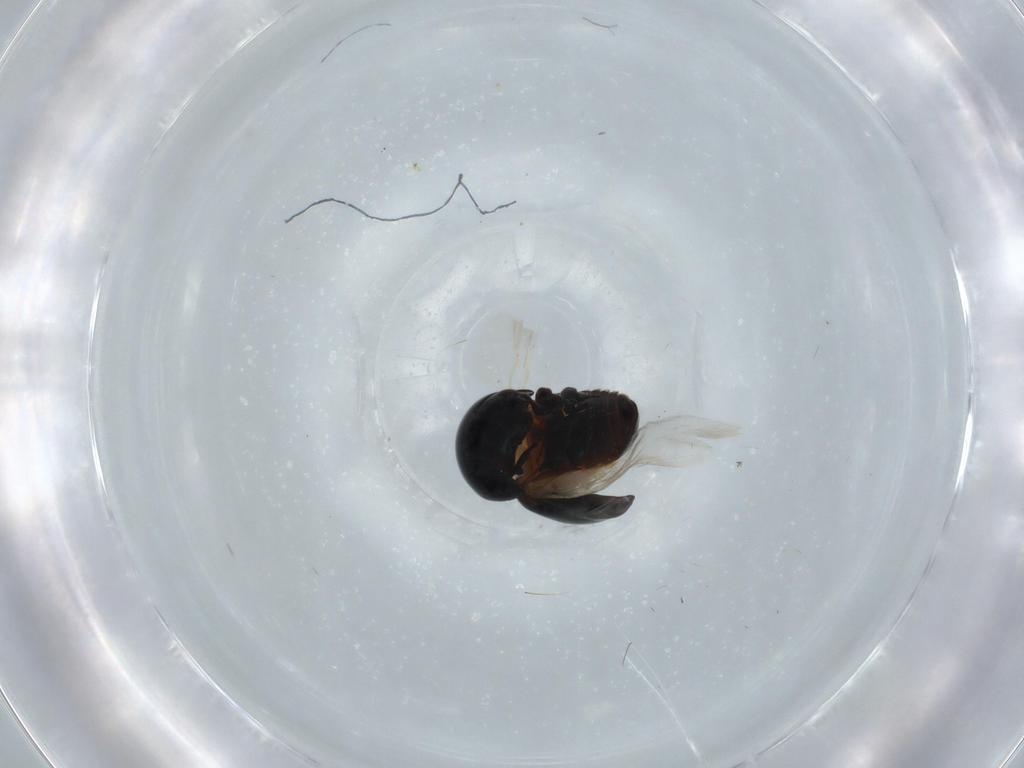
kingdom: Animalia
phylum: Arthropoda
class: Insecta
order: Coleoptera
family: Cybocephalidae
